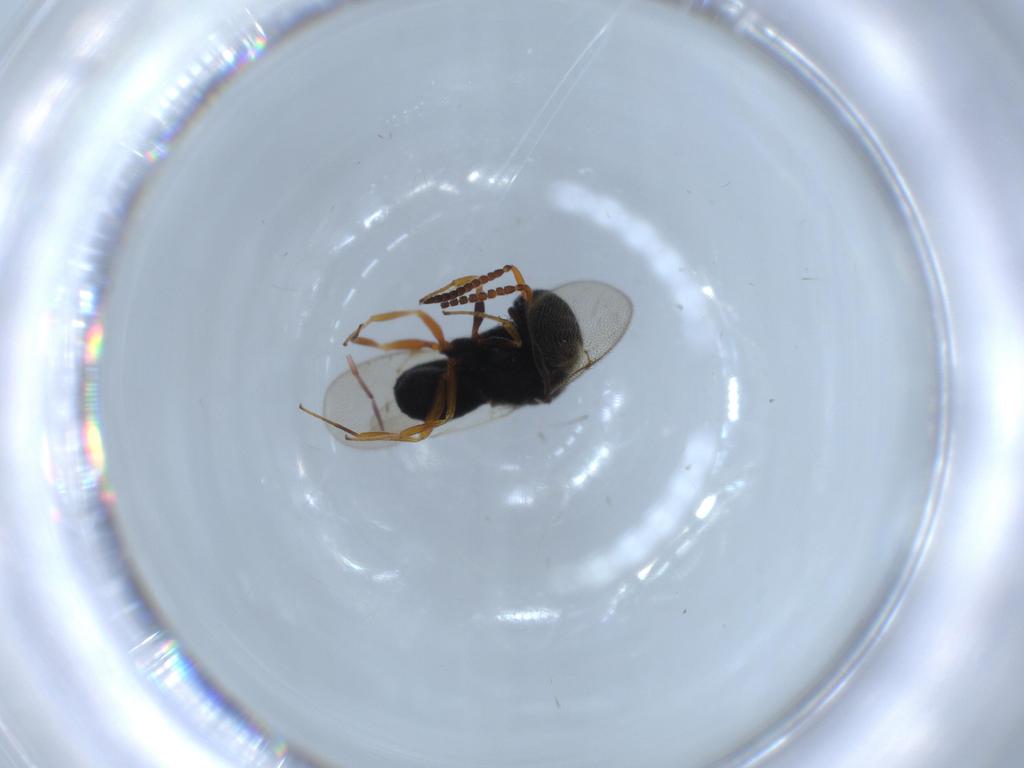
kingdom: Animalia
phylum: Arthropoda
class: Insecta
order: Hymenoptera
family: Scelionidae
